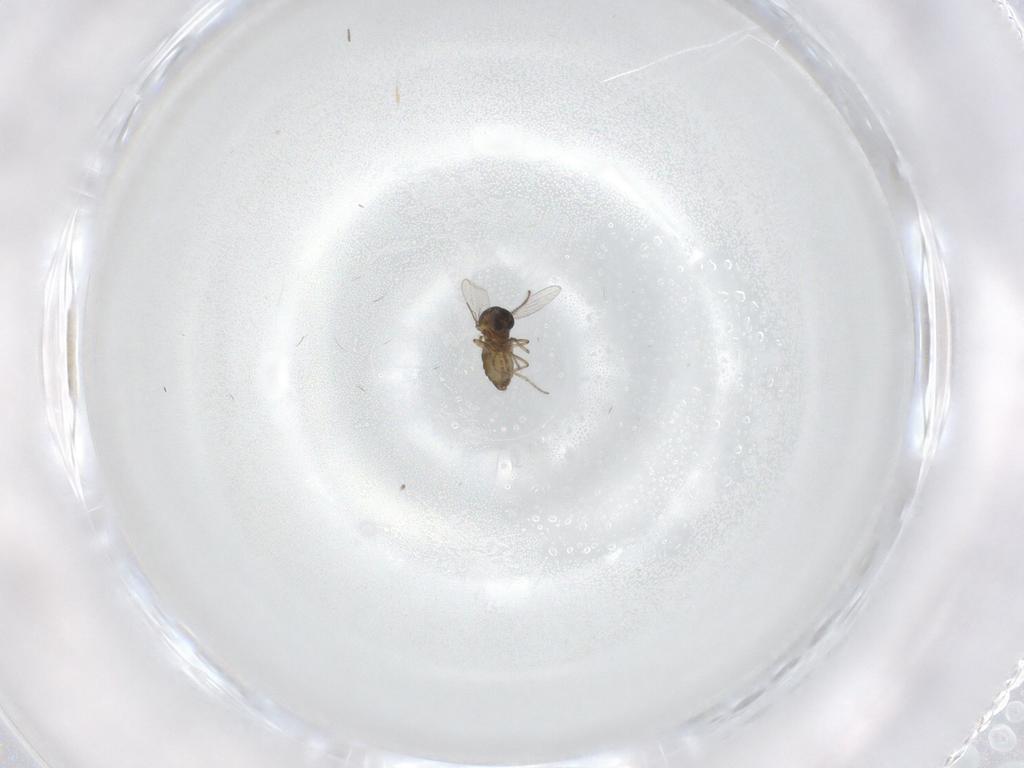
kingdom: Animalia
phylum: Arthropoda
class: Insecta
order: Diptera
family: Ceratopogonidae
